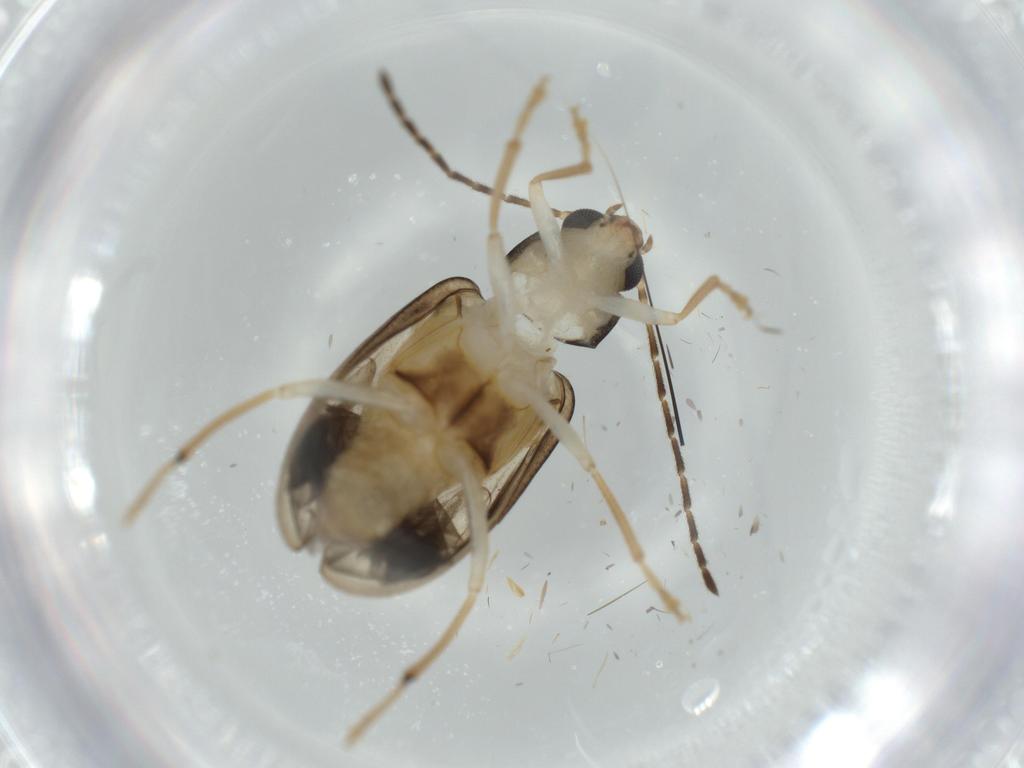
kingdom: Animalia
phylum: Arthropoda
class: Insecta
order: Coleoptera
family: Chrysomelidae
